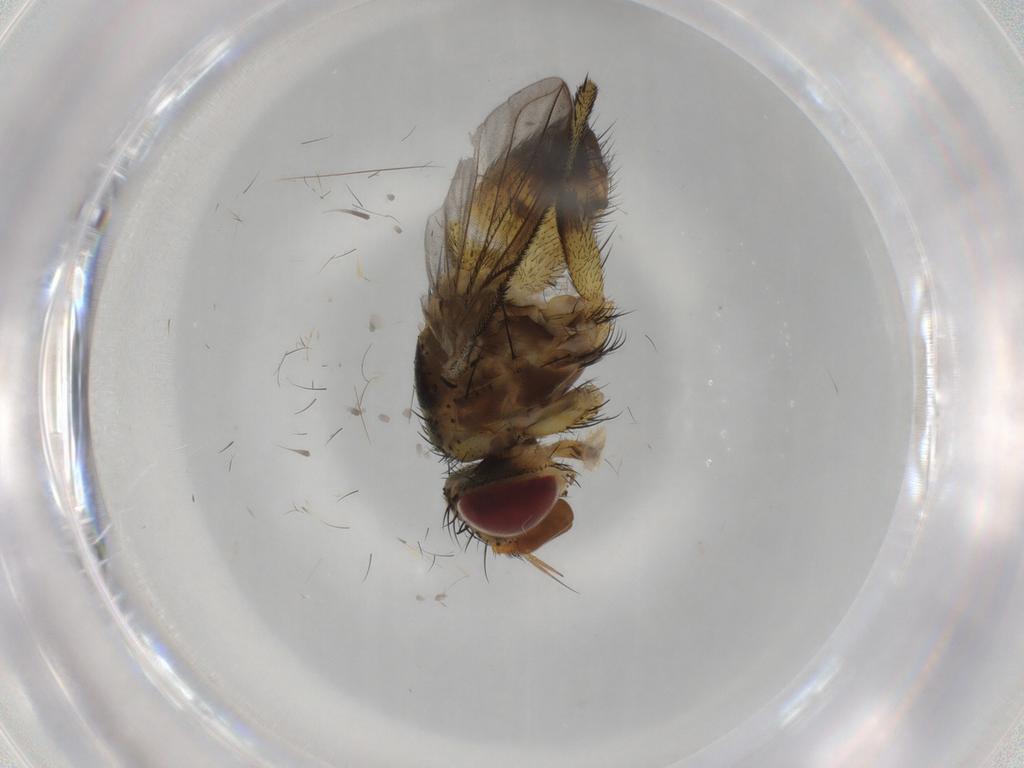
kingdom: Animalia
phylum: Arthropoda
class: Insecta
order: Diptera
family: Tachinidae
